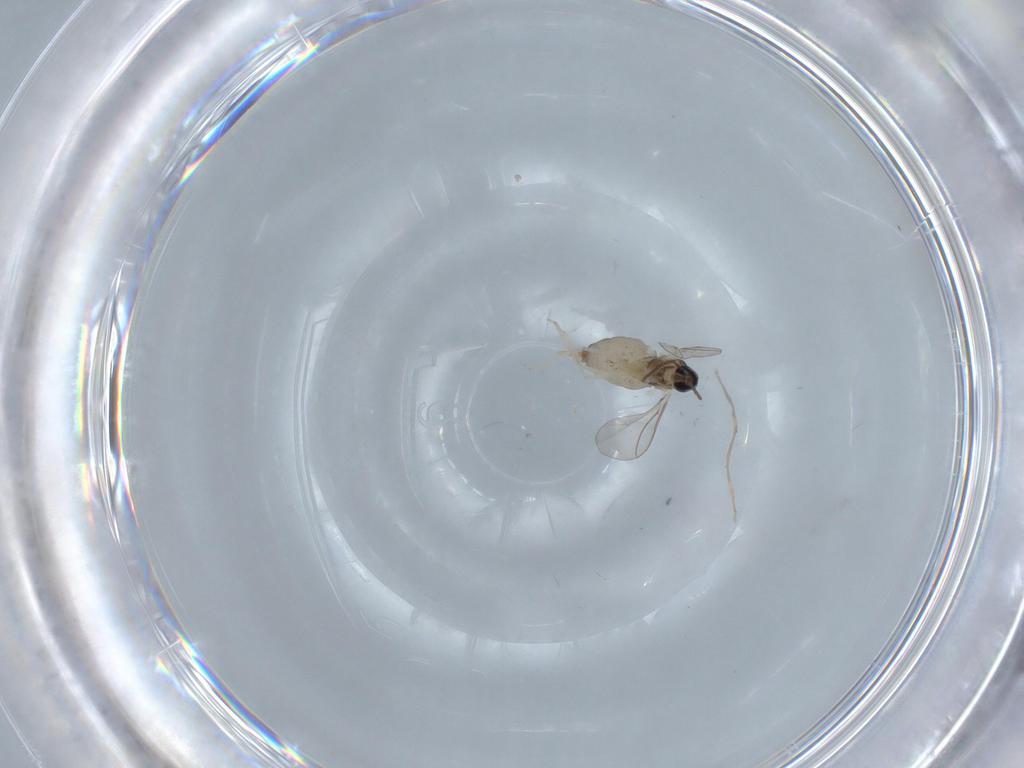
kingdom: Animalia
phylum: Arthropoda
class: Insecta
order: Diptera
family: Cecidomyiidae
